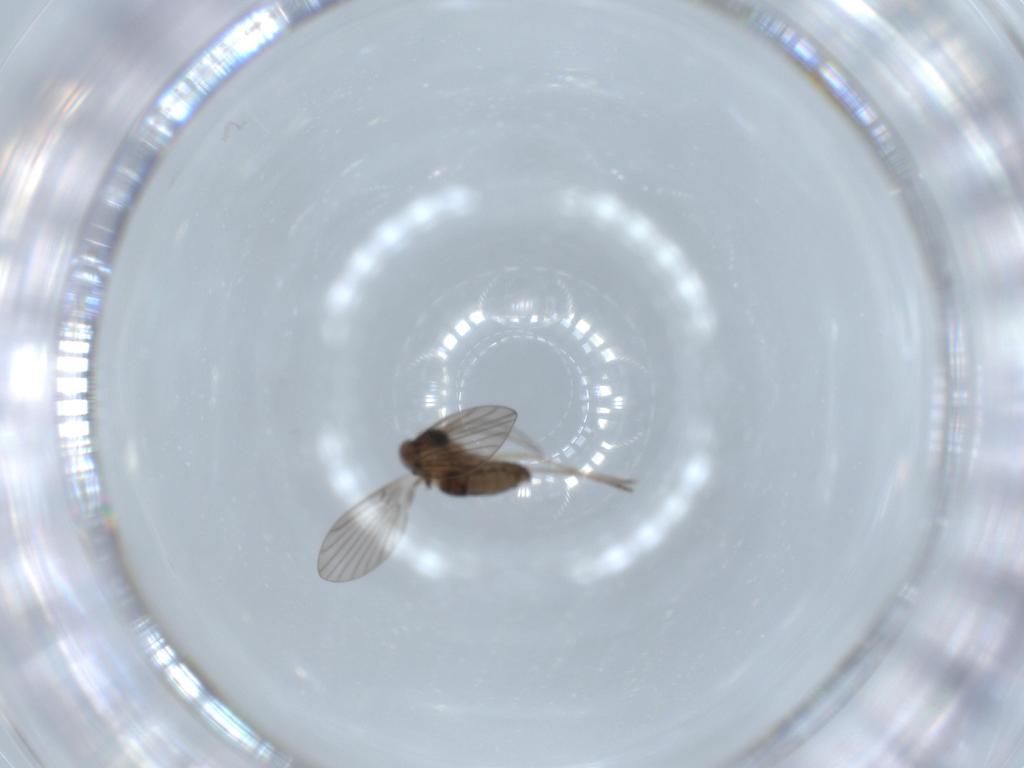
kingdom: Animalia
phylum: Arthropoda
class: Insecta
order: Diptera
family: Psychodidae
